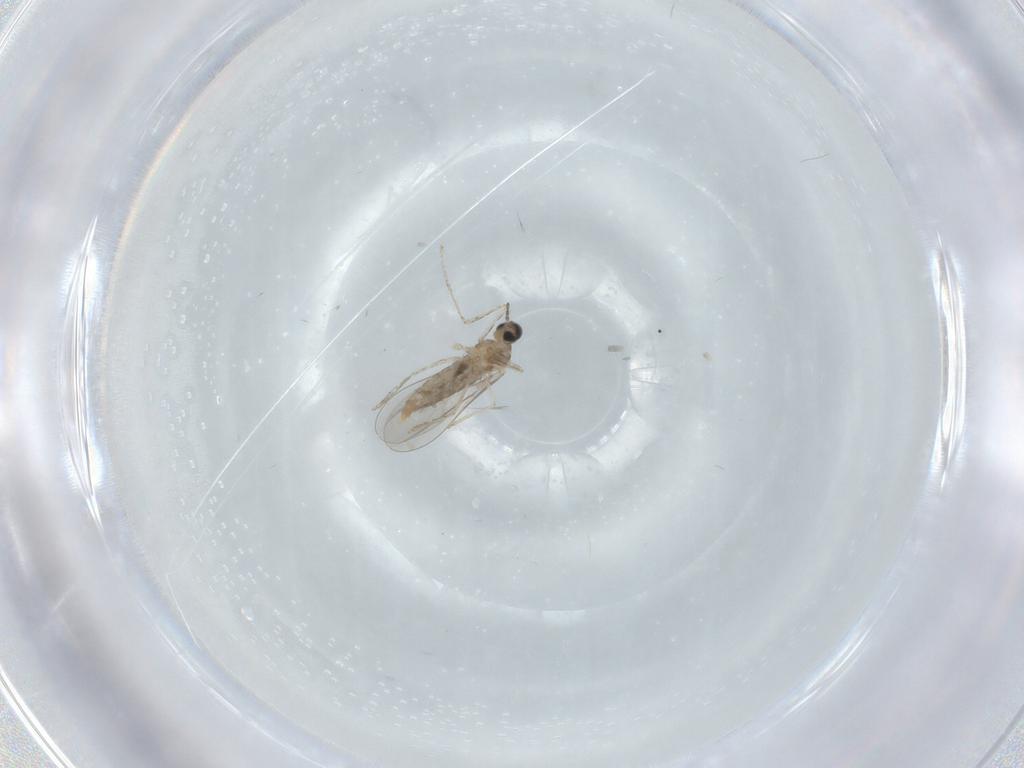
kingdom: Animalia
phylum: Arthropoda
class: Insecta
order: Diptera
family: Cecidomyiidae
